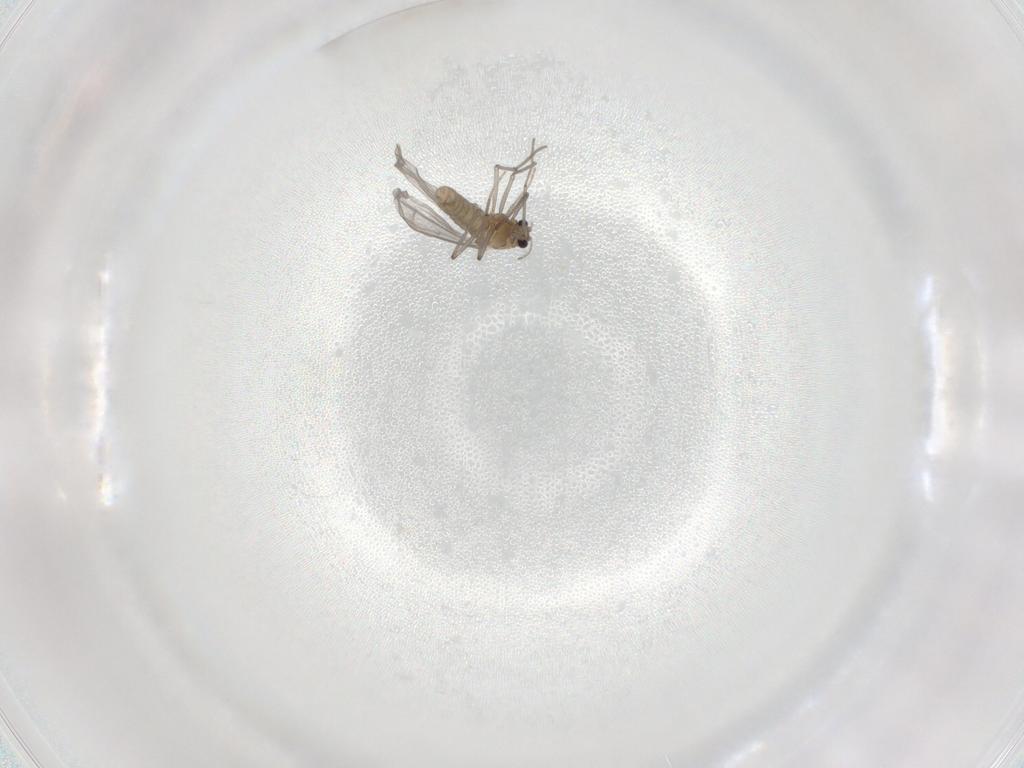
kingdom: Animalia
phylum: Arthropoda
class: Insecta
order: Diptera
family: Chironomidae
